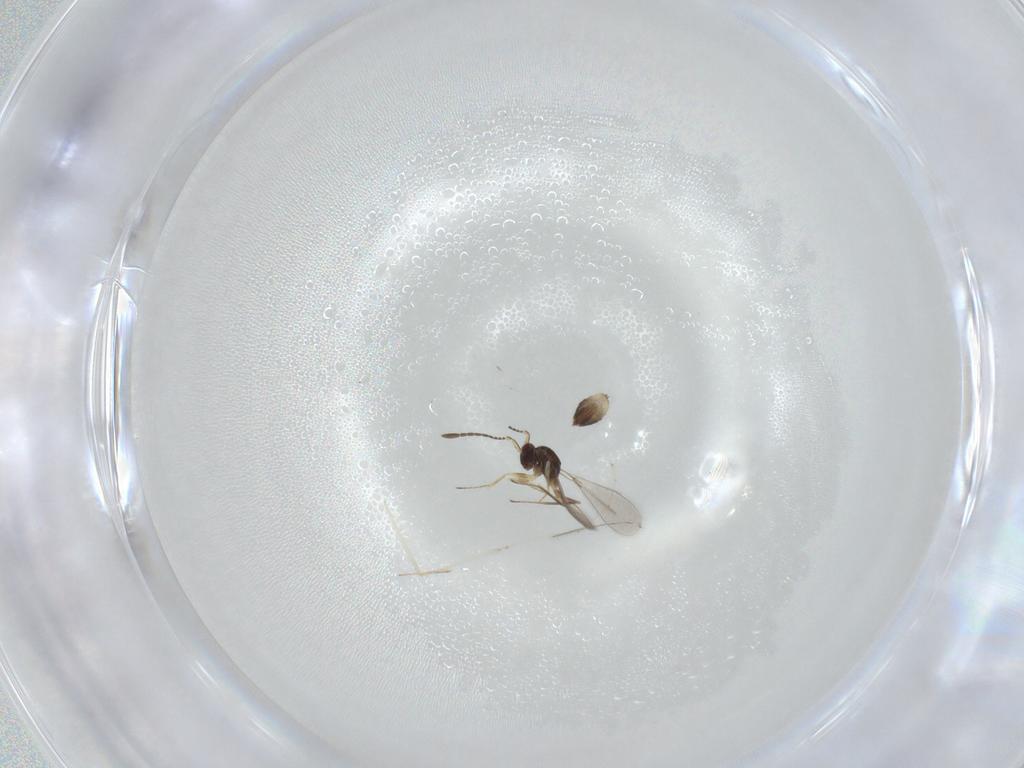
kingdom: Animalia
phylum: Arthropoda
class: Insecta
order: Hymenoptera
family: Mymaridae
